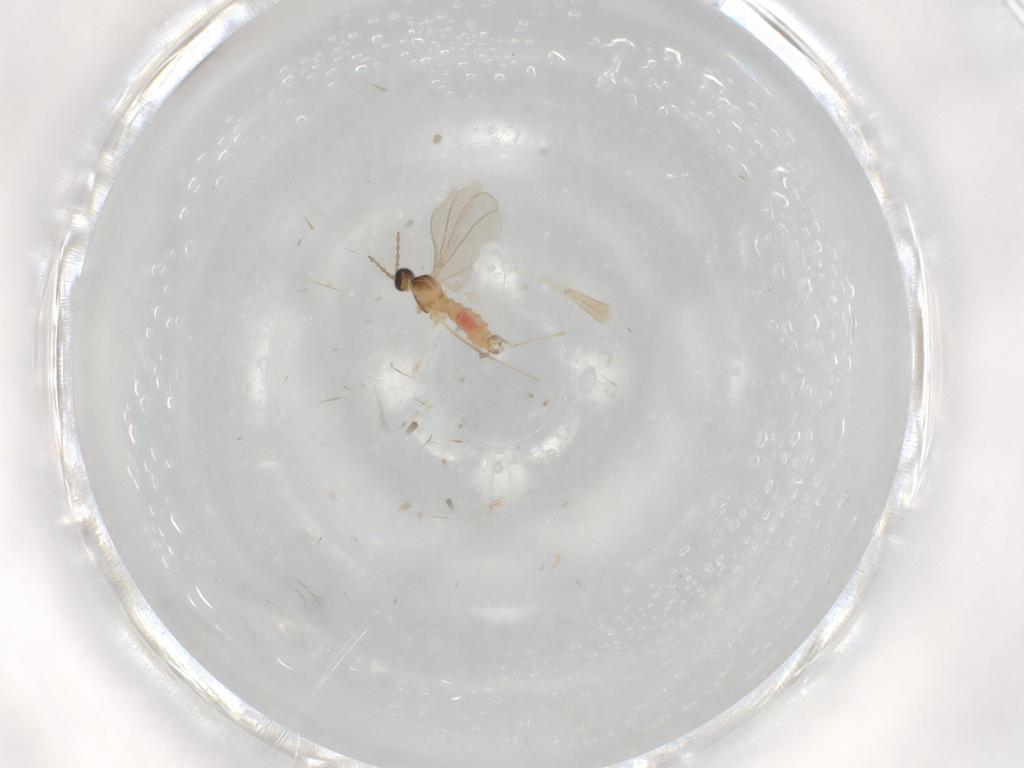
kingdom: Animalia
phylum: Arthropoda
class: Insecta
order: Diptera
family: Cecidomyiidae
